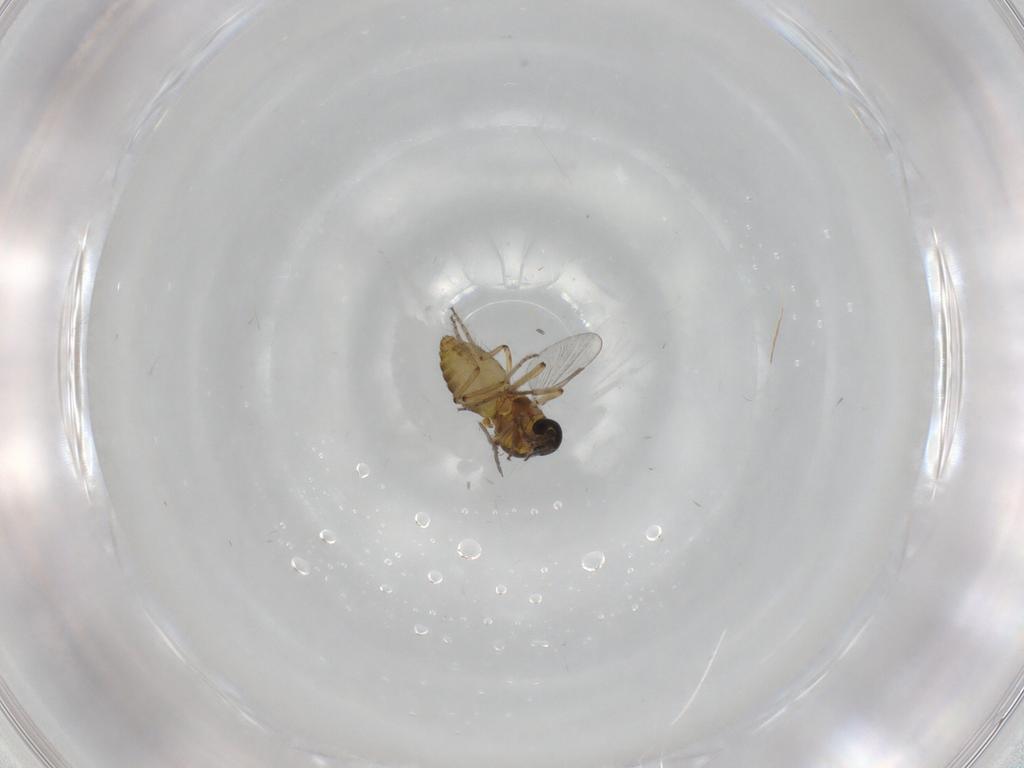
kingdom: Animalia
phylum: Arthropoda
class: Insecta
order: Diptera
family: Ceratopogonidae
